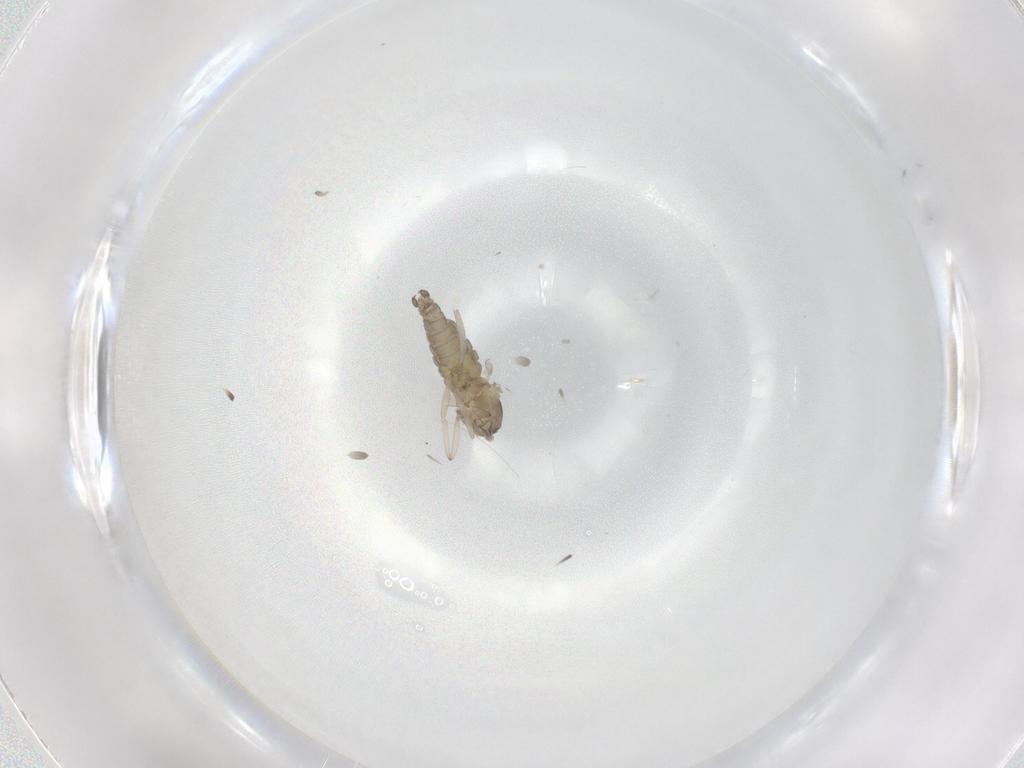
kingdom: Animalia
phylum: Arthropoda
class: Insecta
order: Diptera
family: Cecidomyiidae
